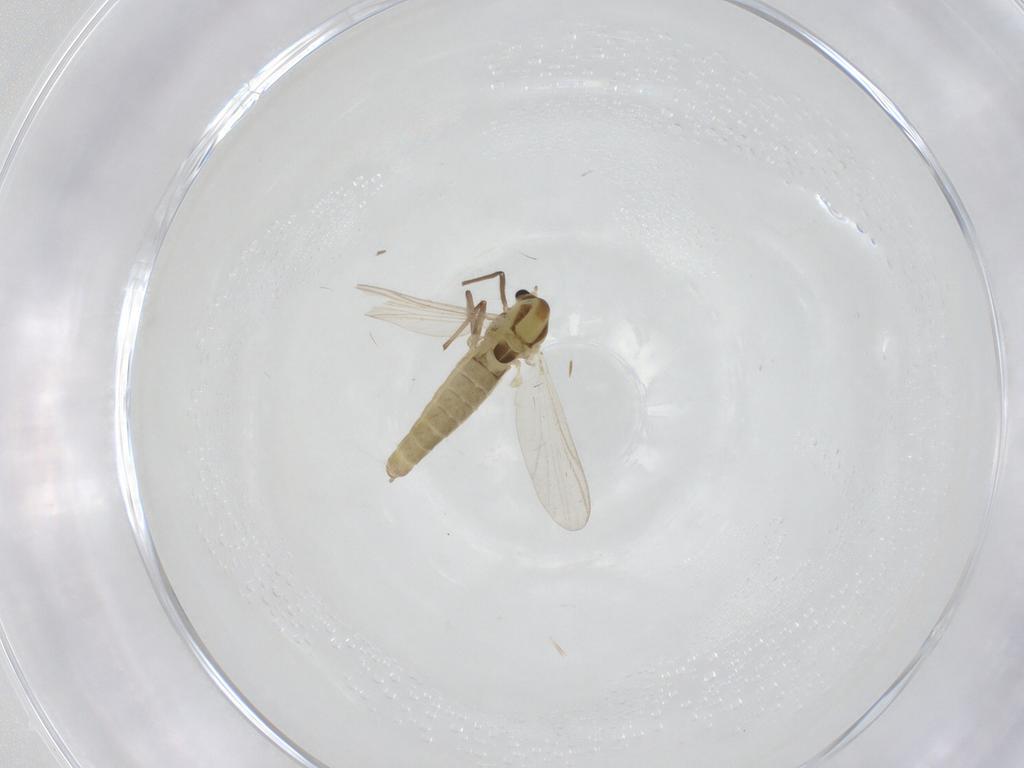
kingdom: Animalia
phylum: Arthropoda
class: Insecta
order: Diptera
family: Chironomidae
